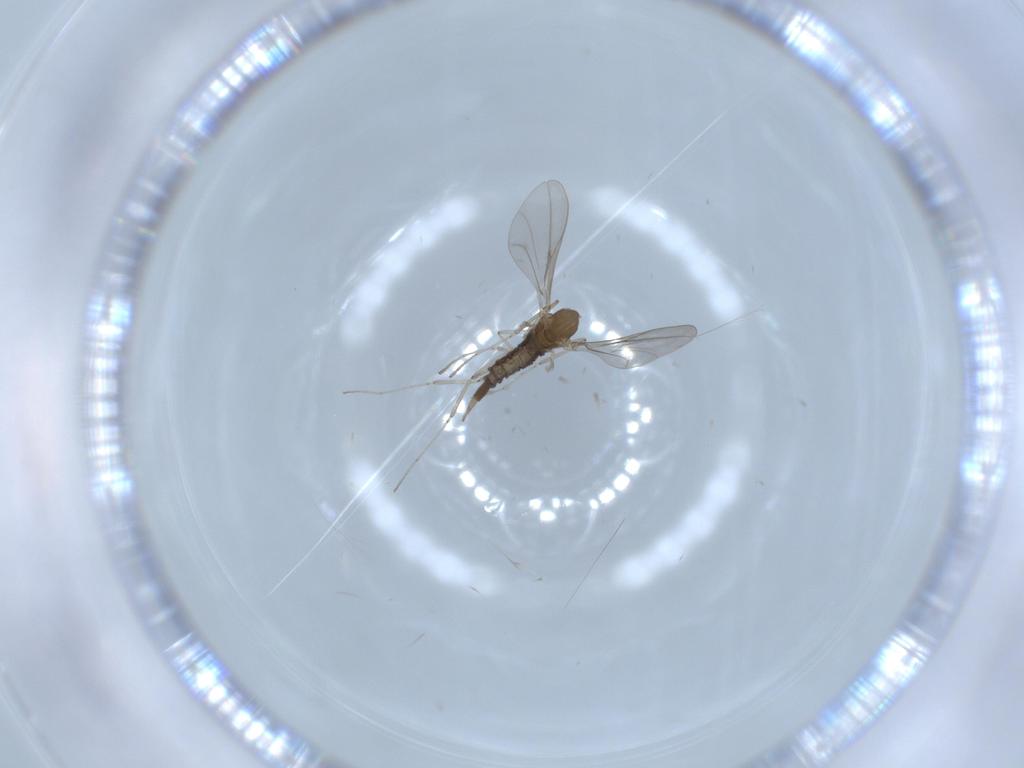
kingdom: Animalia
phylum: Arthropoda
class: Insecta
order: Diptera
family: Cecidomyiidae
